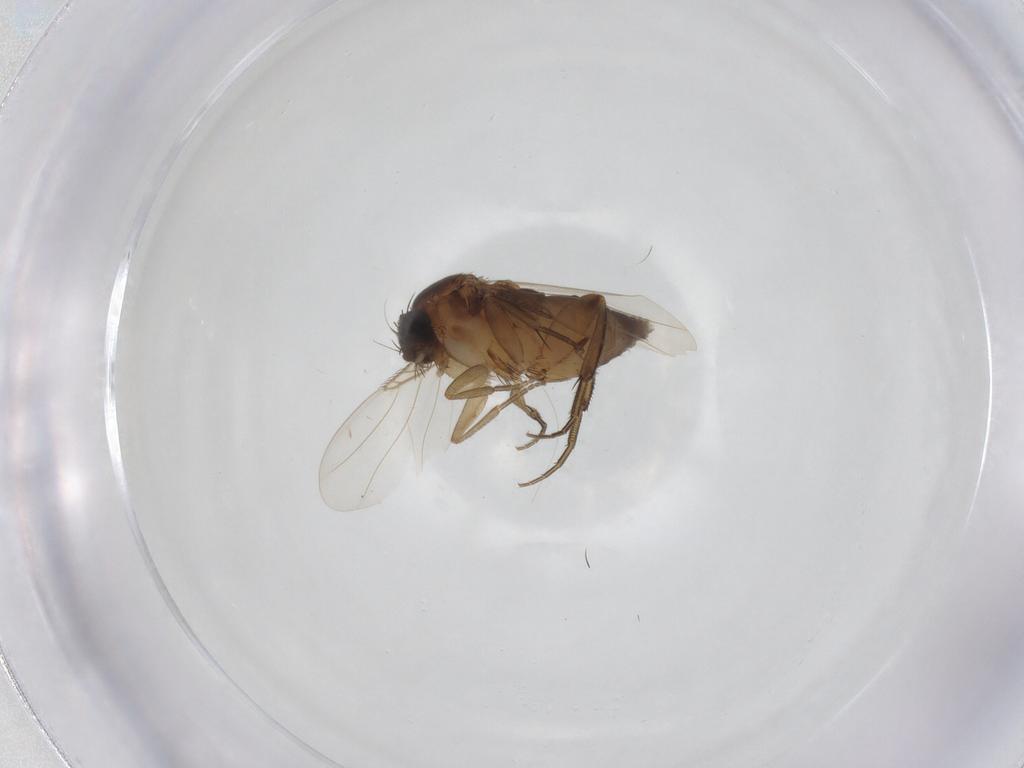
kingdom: Animalia
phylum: Arthropoda
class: Insecta
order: Diptera
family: Phoridae
